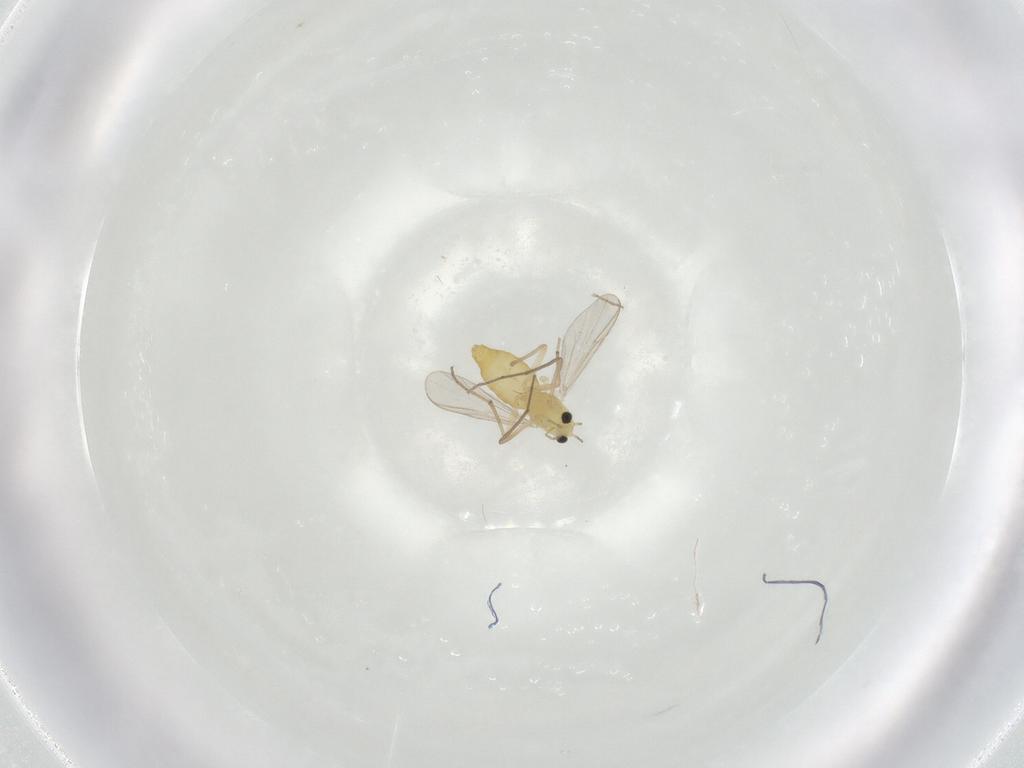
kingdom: Animalia
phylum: Arthropoda
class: Insecta
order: Diptera
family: Chironomidae
